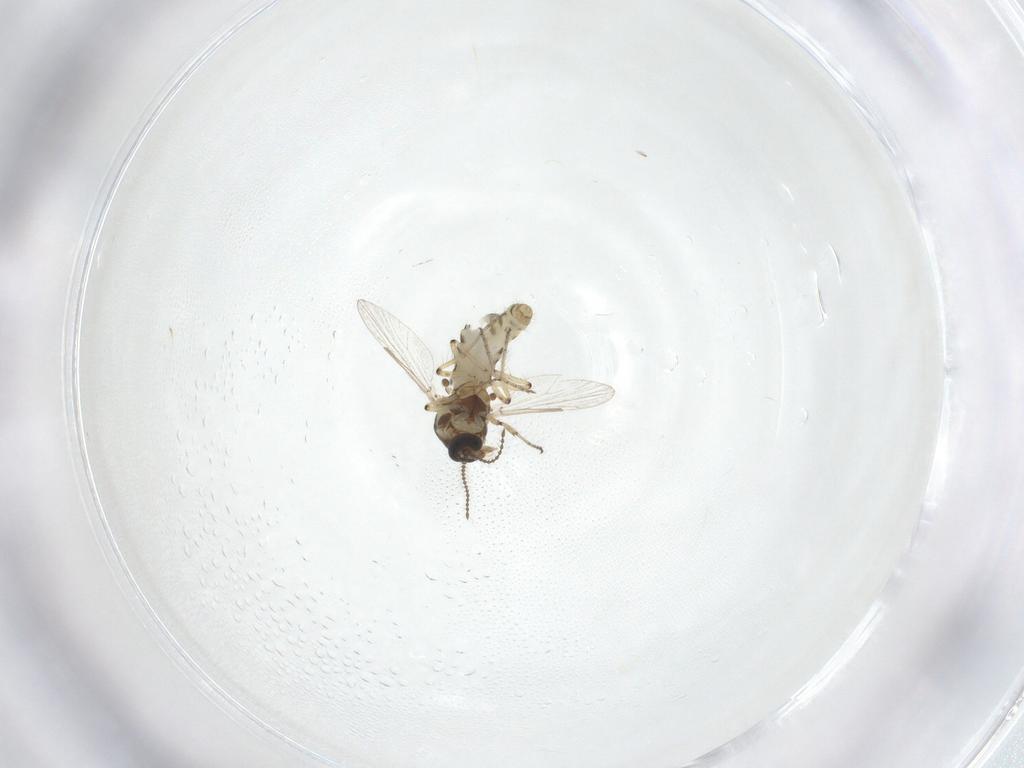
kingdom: Animalia
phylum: Arthropoda
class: Insecta
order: Diptera
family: Ceratopogonidae
